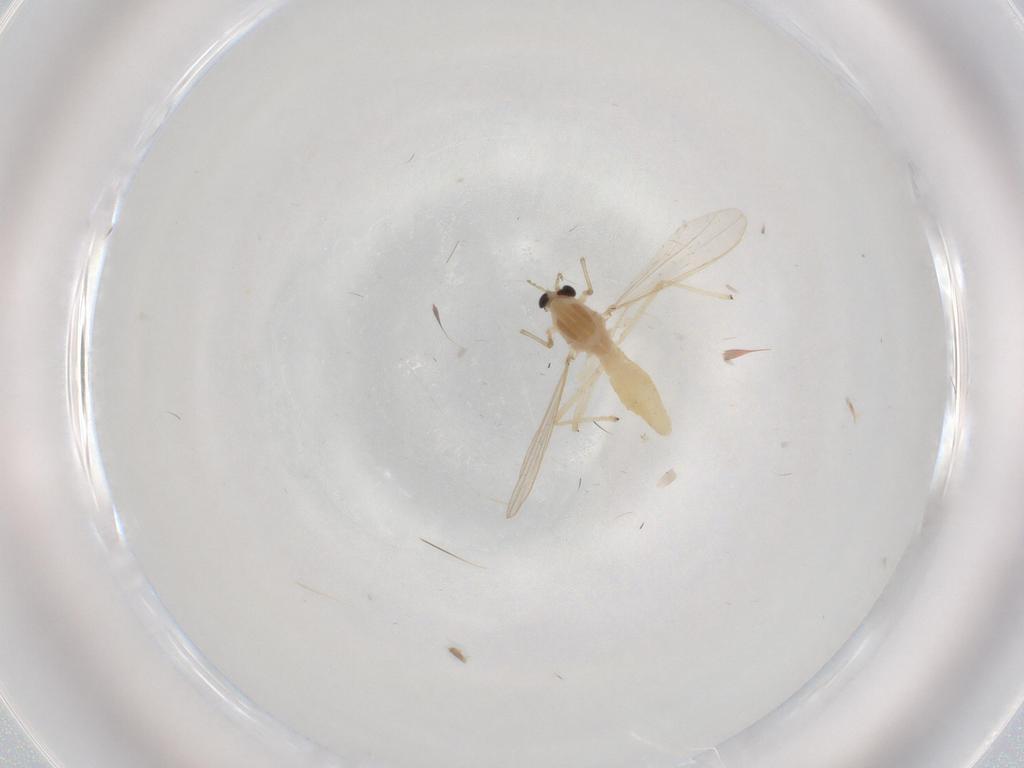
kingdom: Animalia
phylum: Arthropoda
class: Insecta
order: Diptera
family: Chironomidae
